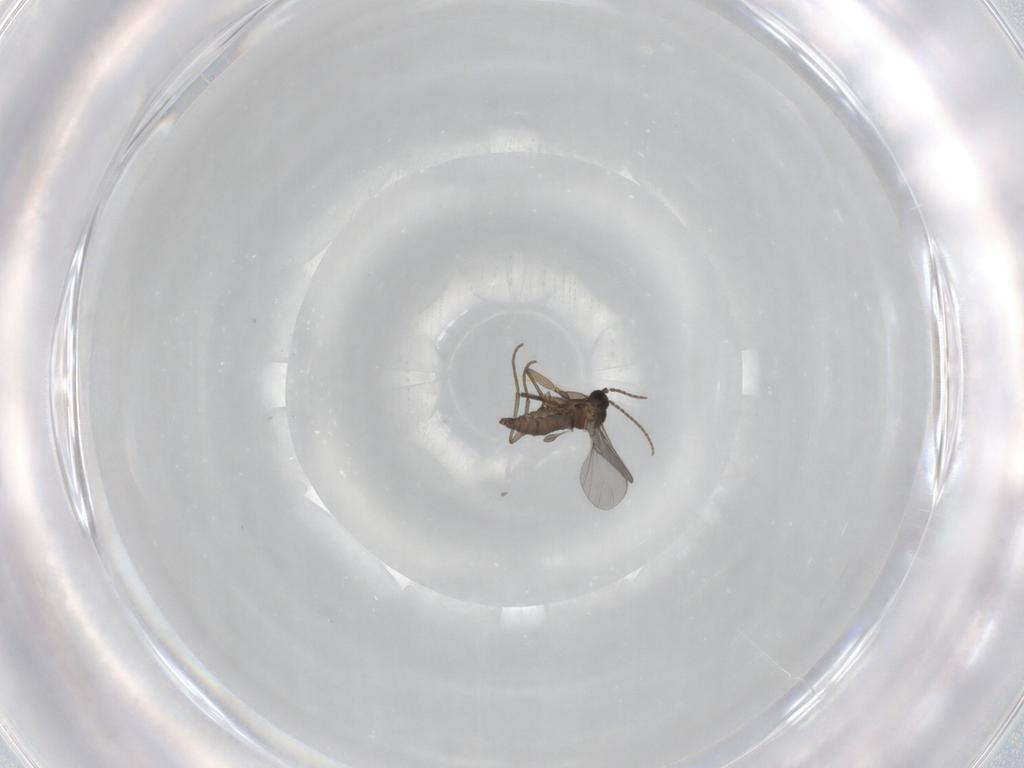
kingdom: Animalia
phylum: Arthropoda
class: Insecta
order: Diptera
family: Sciaridae
